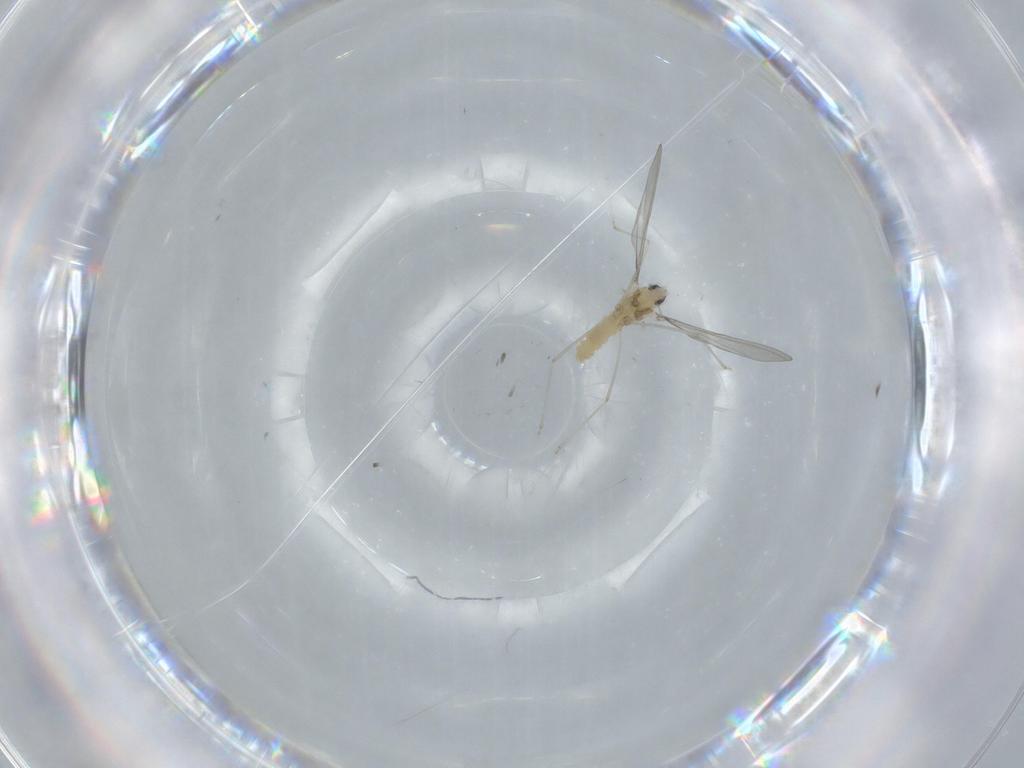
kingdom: Animalia
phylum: Arthropoda
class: Insecta
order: Diptera
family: Cecidomyiidae
